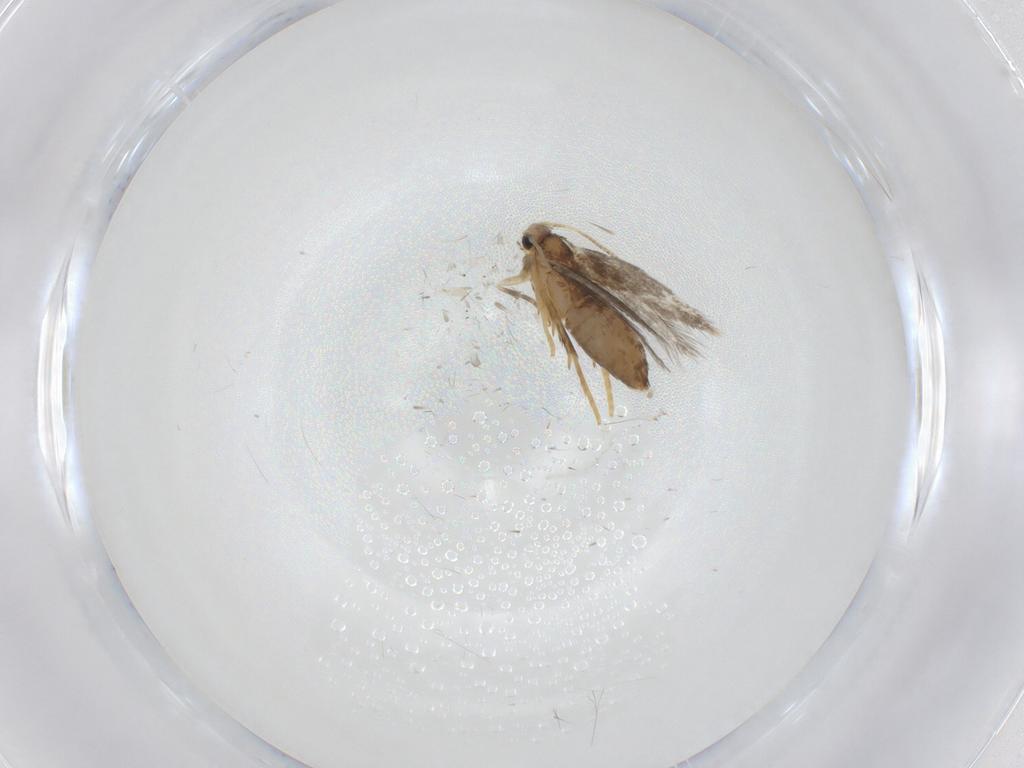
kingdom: Animalia
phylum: Arthropoda
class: Insecta
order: Lepidoptera
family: Nepticulidae
